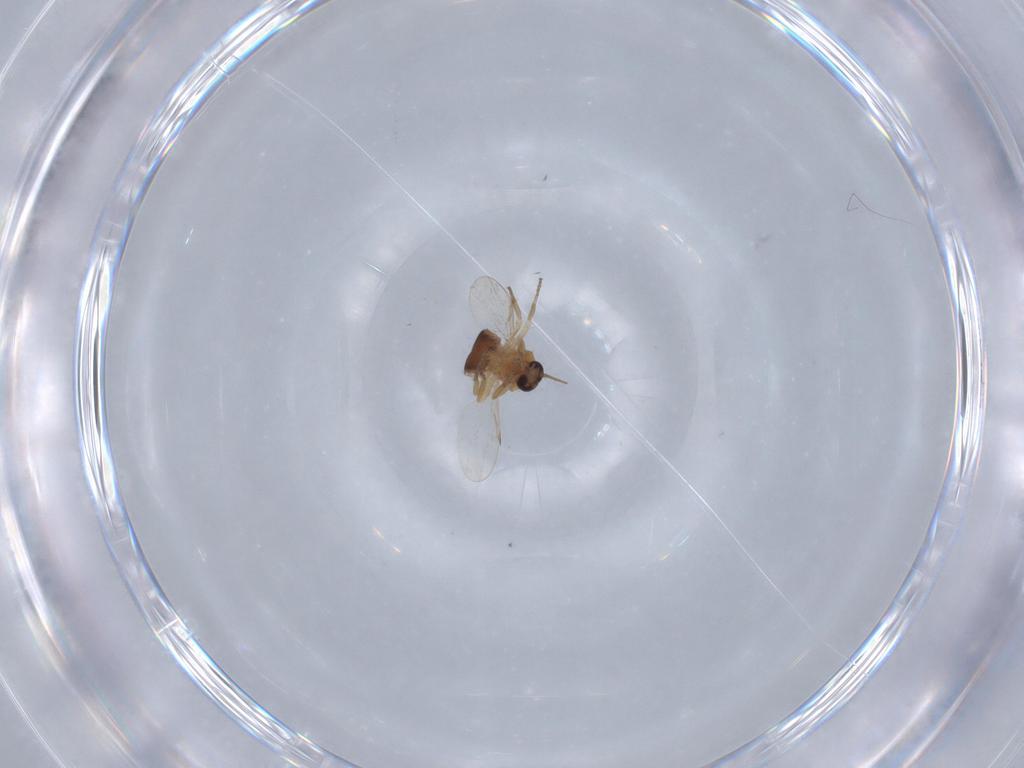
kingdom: Animalia
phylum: Arthropoda
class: Insecta
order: Diptera
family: Ceratopogonidae
